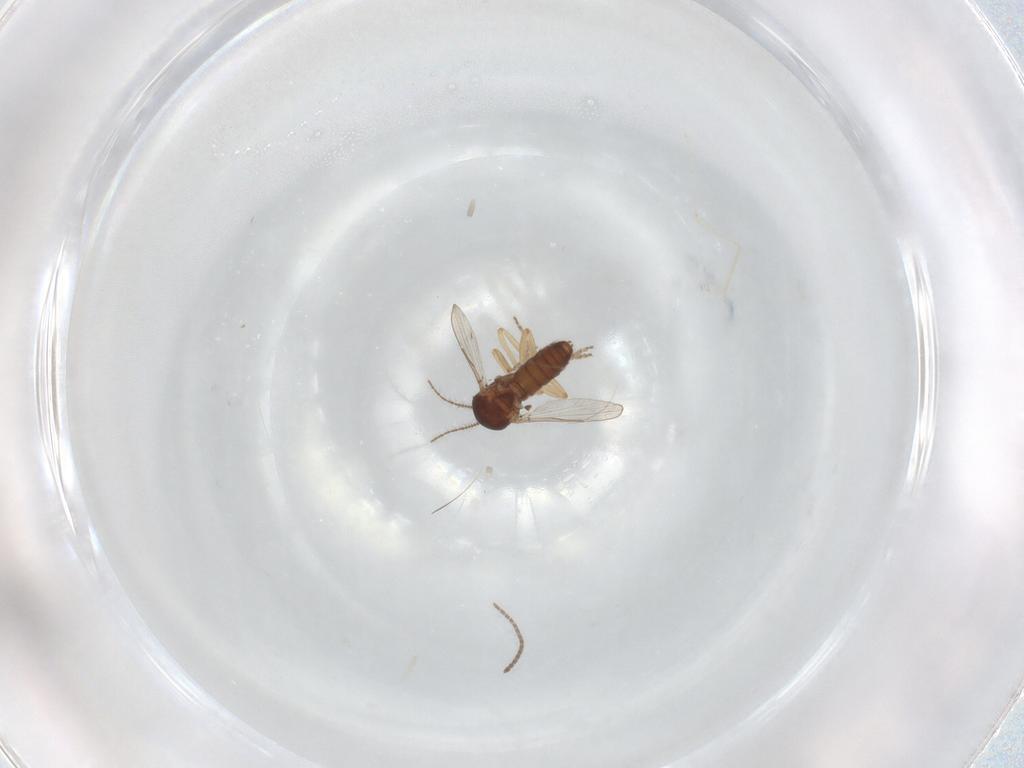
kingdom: Animalia
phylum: Arthropoda
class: Insecta
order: Diptera
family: Ceratopogonidae
